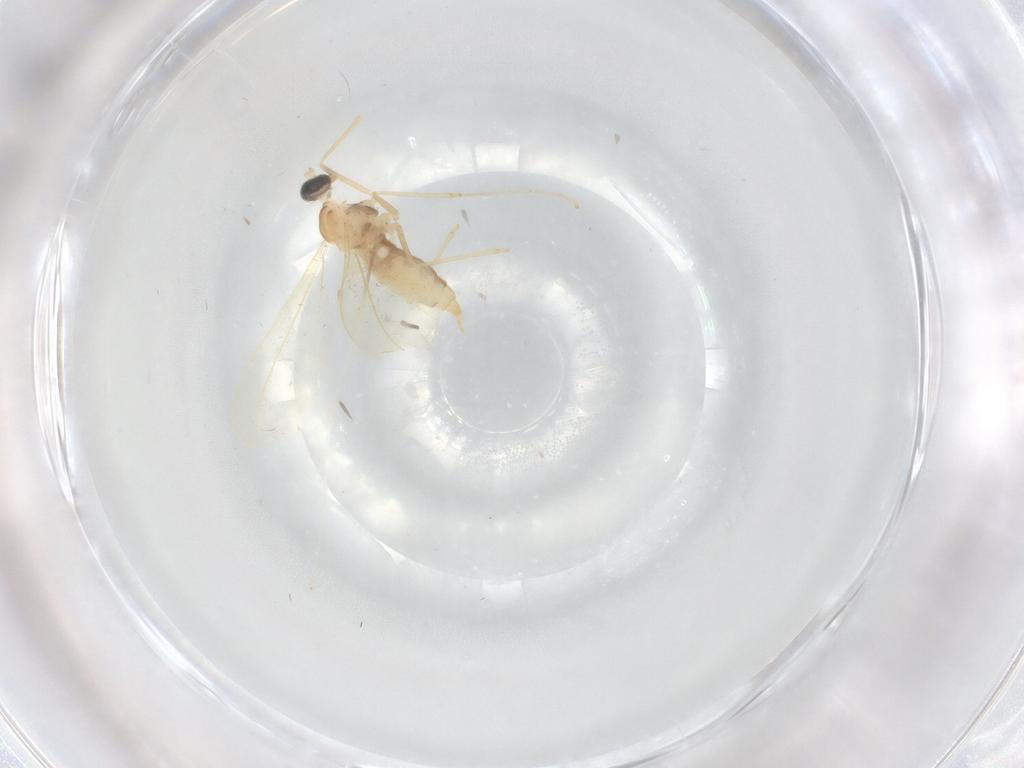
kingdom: Animalia
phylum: Arthropoda
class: Insecta
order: Diptera
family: Cecidomyiidae
